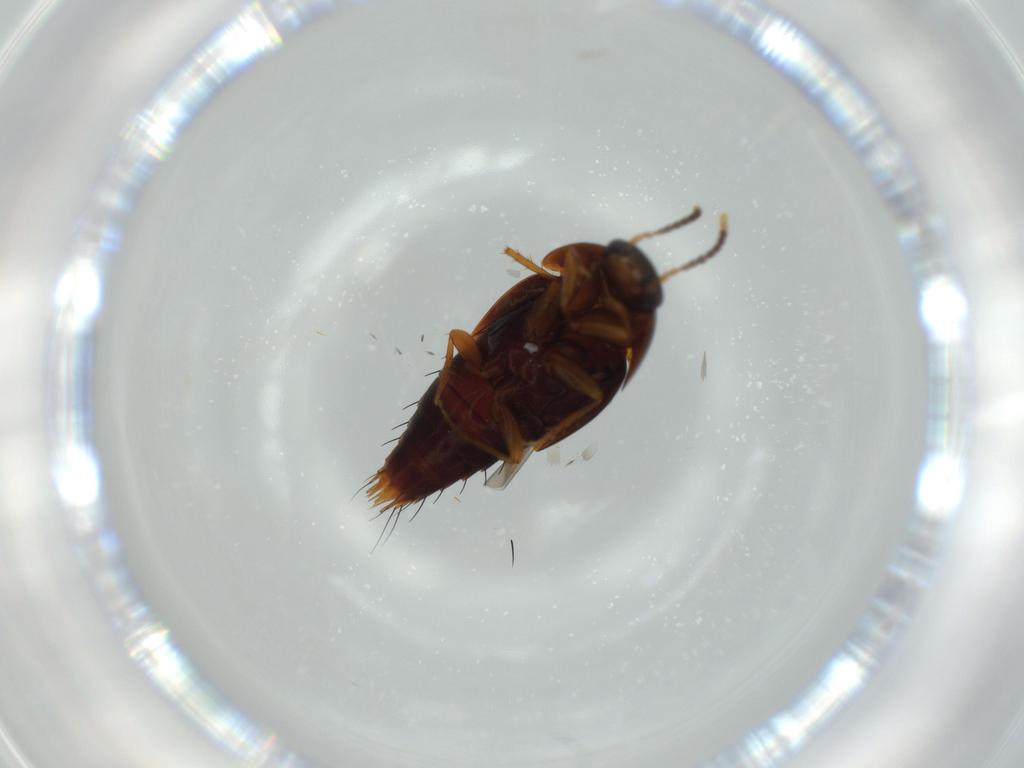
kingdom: Animalia
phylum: Arthropoda
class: Insecta
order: Coleoptera
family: Staphylinidae
